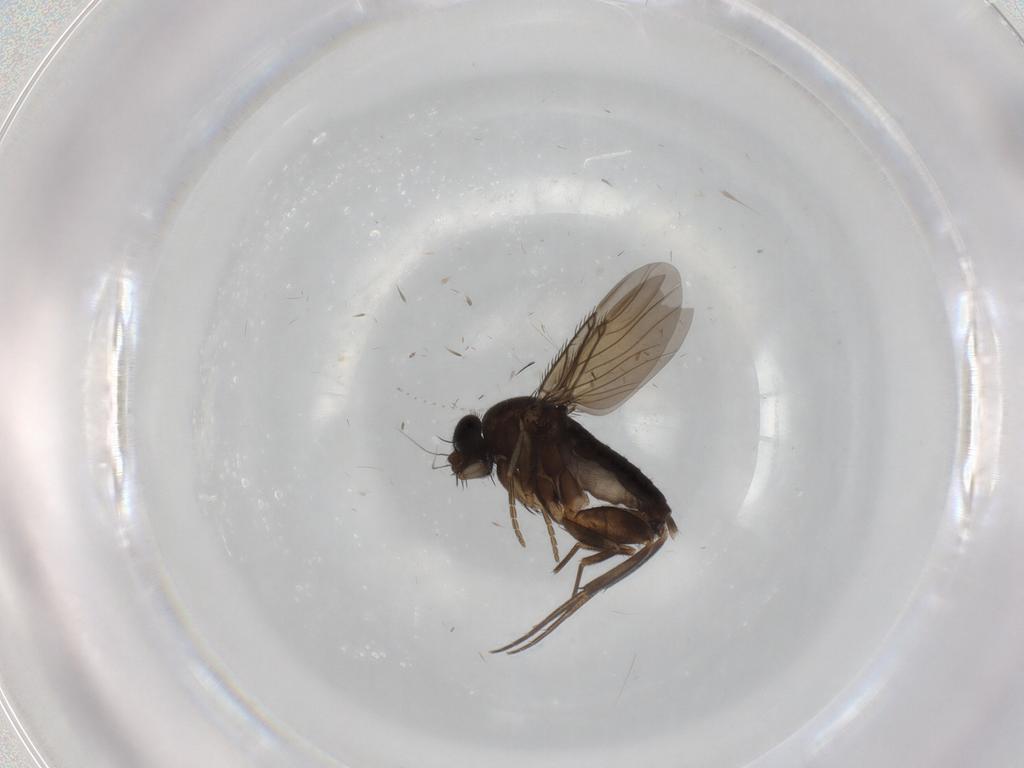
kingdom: Animalia
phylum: Arthropoda
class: Insecta
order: Diptera
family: Phoridae
